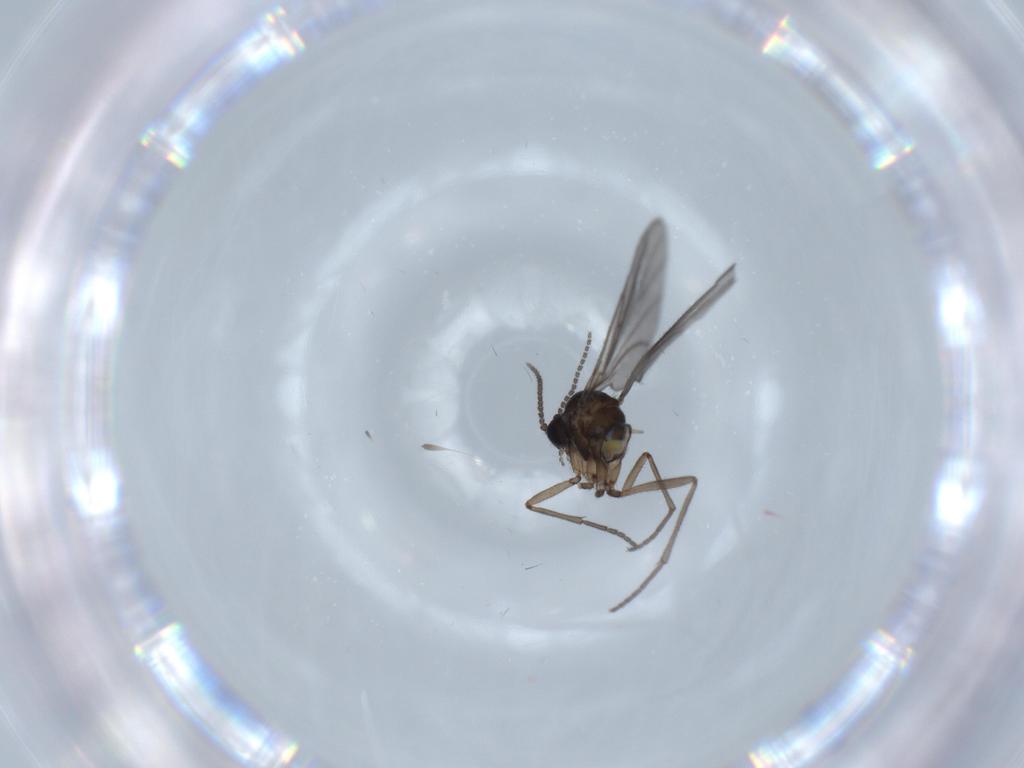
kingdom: Animalia
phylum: Arthropoda
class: Insecta
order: Diptera
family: Sciaridae
